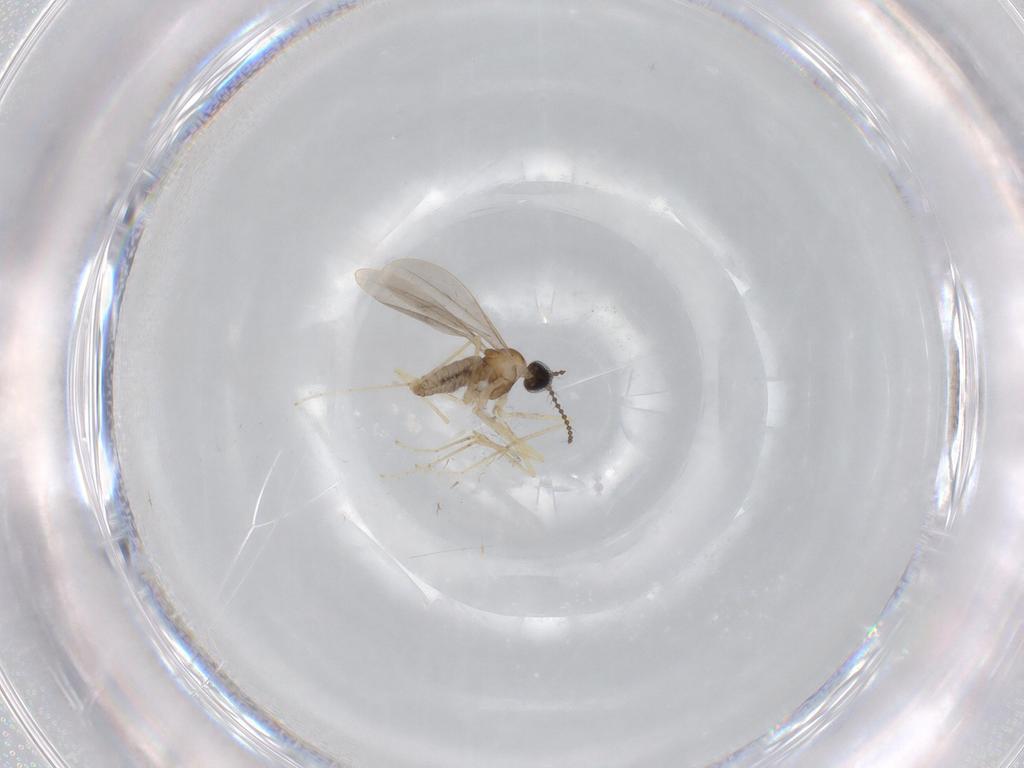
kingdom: Animalia
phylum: Arthropoda
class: Insecta
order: Diptera
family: Cecidomyiidae
